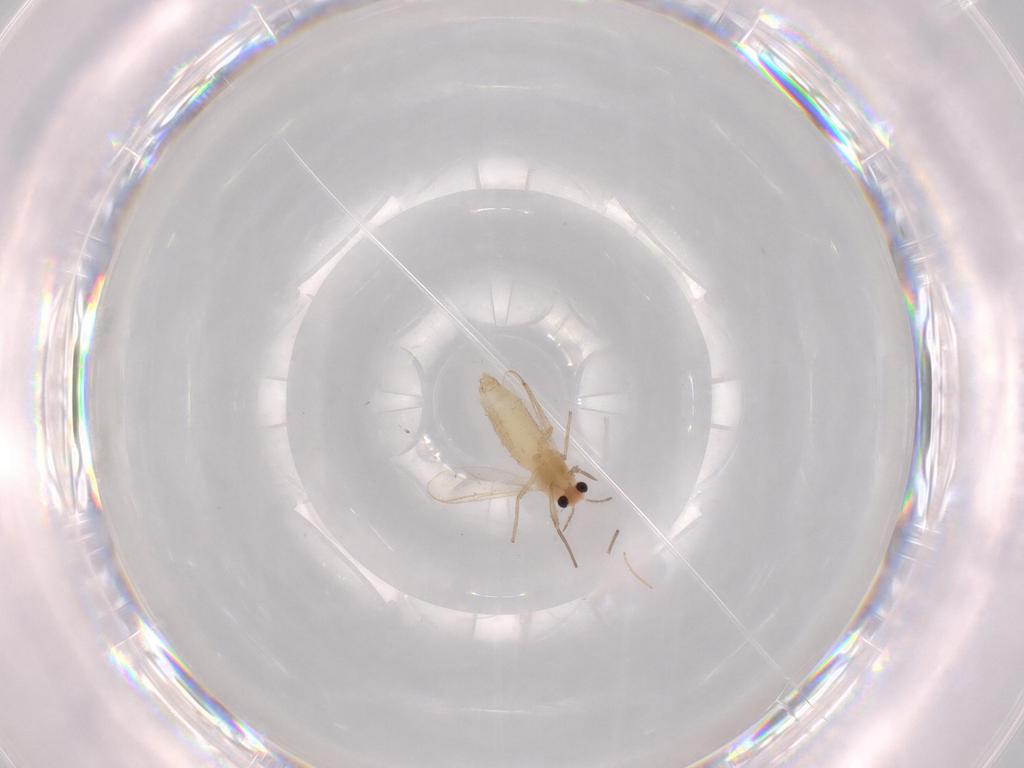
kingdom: Animalia
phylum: Arthropoda
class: Insecta
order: Diptera
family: Chironomidae
